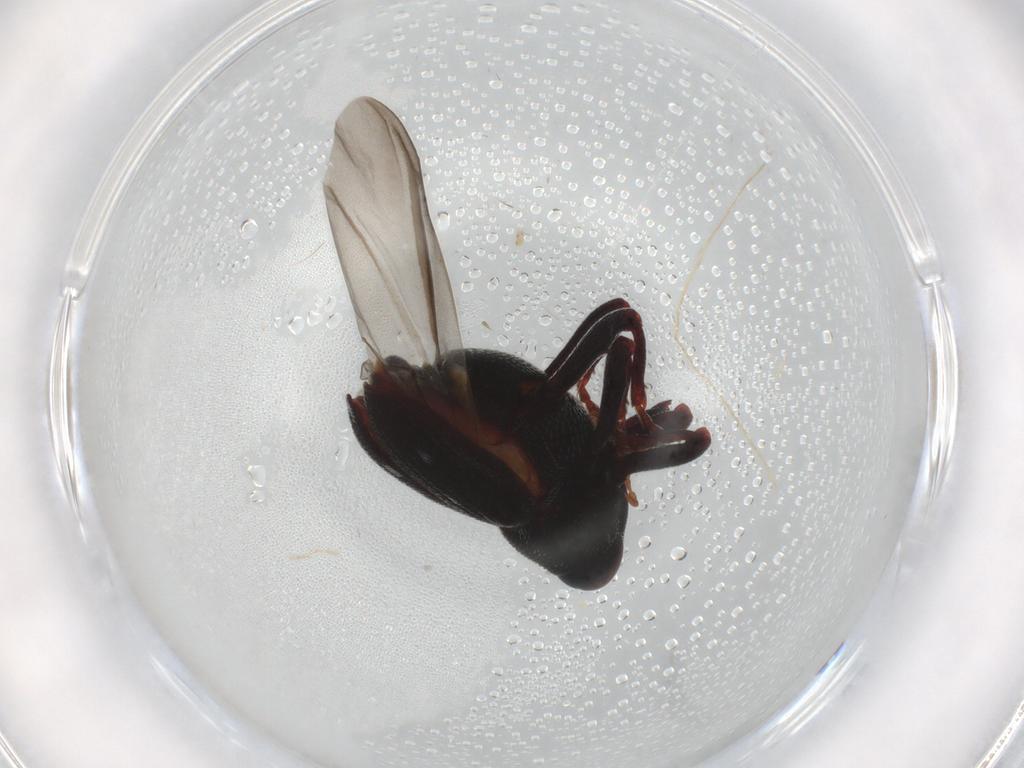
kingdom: Animalia
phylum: Arthropoda
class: Insecta
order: Coleoptera
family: Curculionidae
